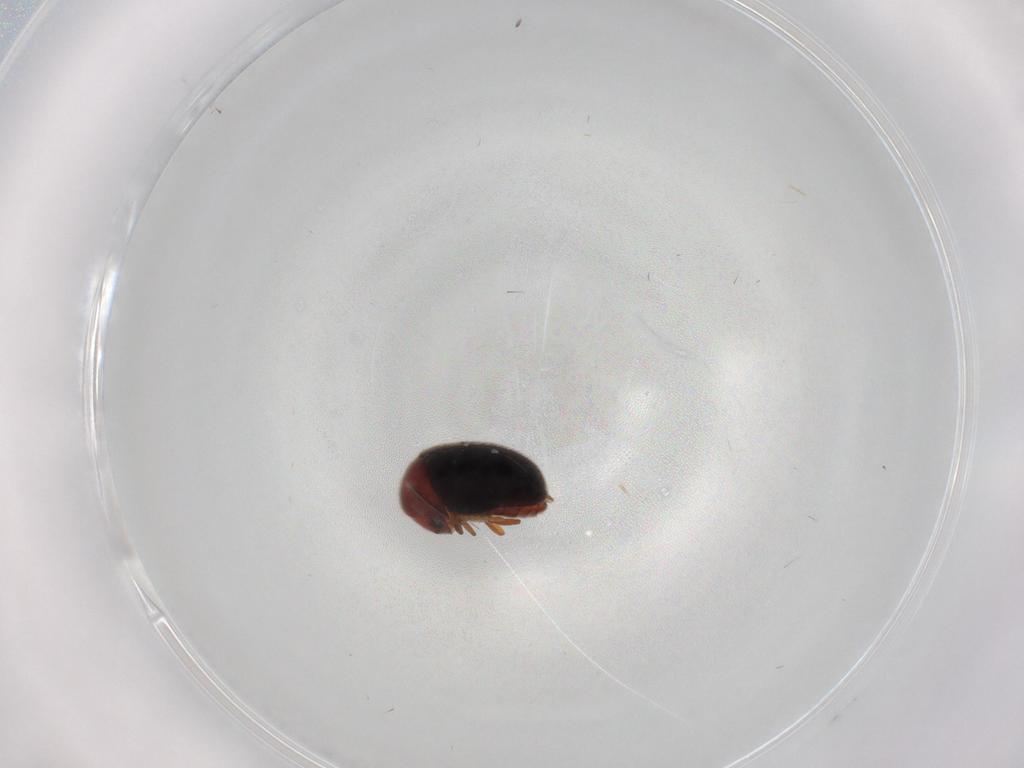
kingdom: Animalia
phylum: Arthropoda
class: Insecta
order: Coleoptera
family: Ptinidae
